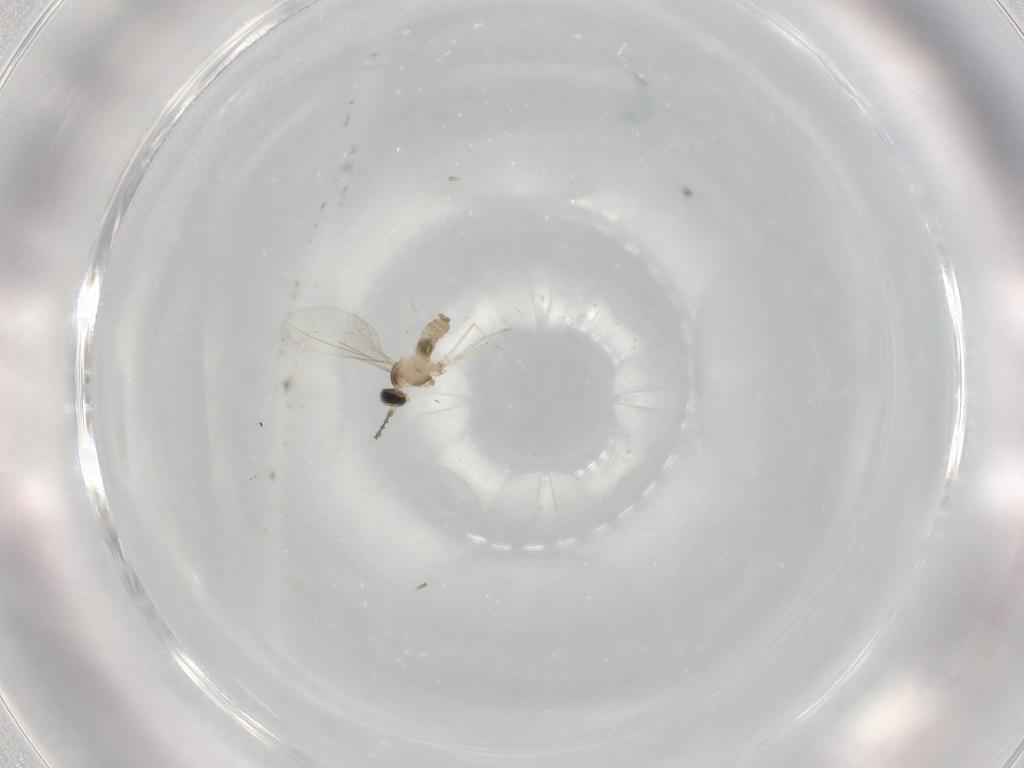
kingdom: Animalia
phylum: Arthropoda
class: Insecta
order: Diptera
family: Cecidomyiidae
